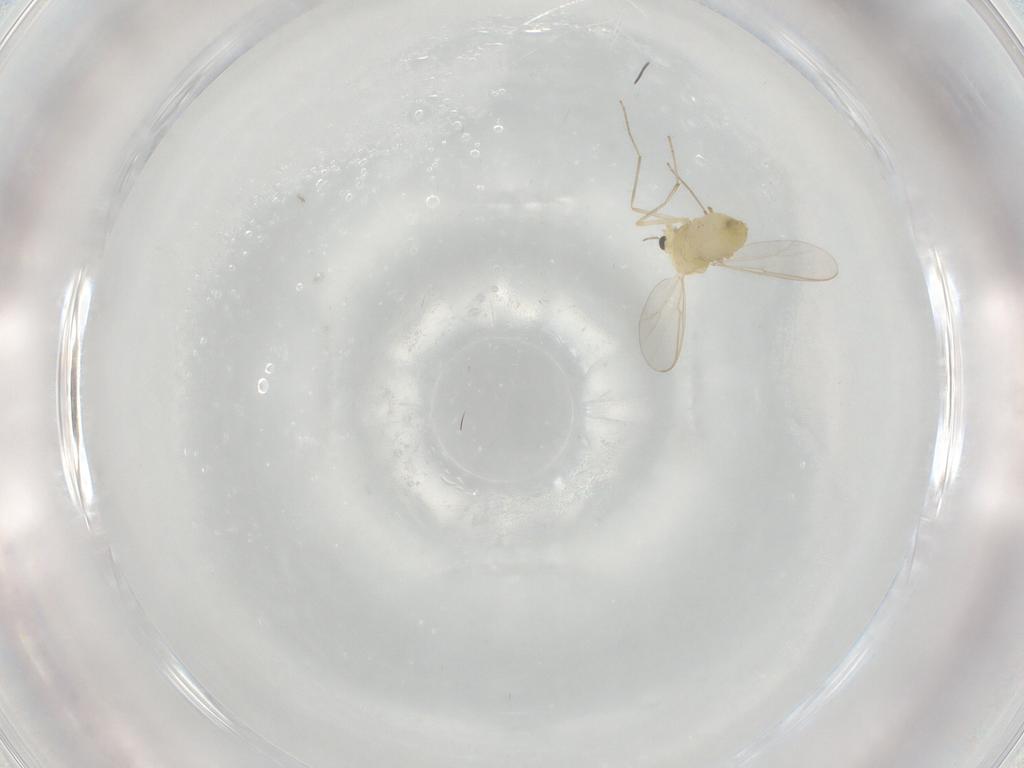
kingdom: Animalia
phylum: Arthropoda
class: Insecta
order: Diptera
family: Chironomidae
